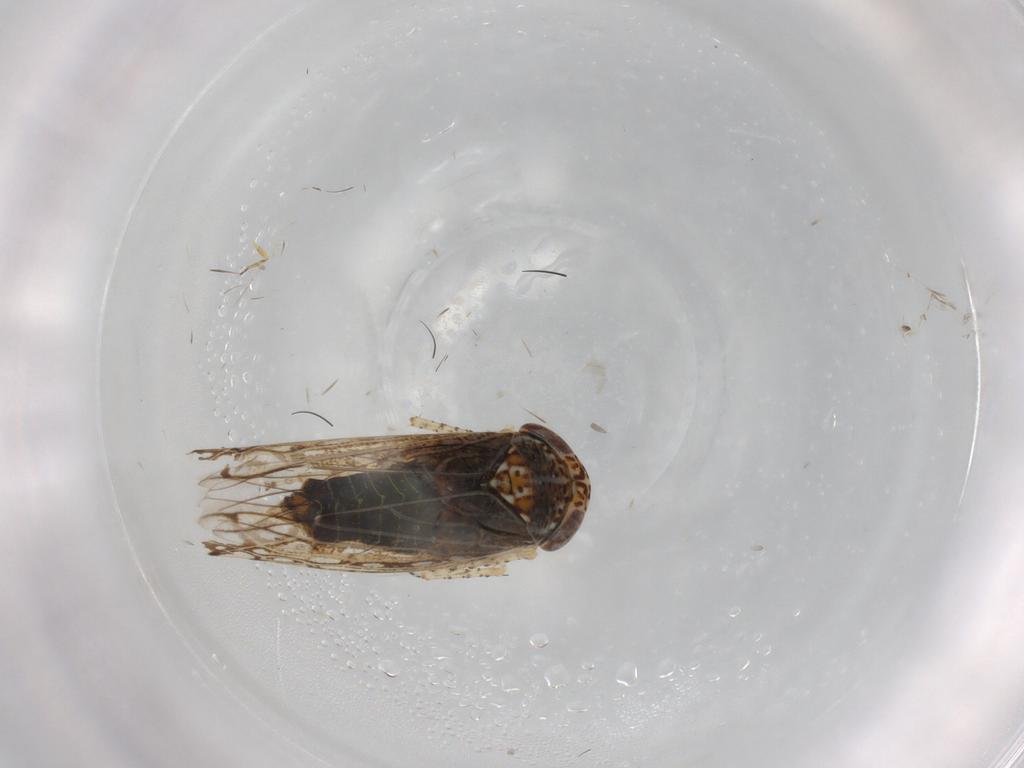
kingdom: Animalia
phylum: Arthropoda
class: Insecta
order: Hemiptera
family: Cicadellidae
